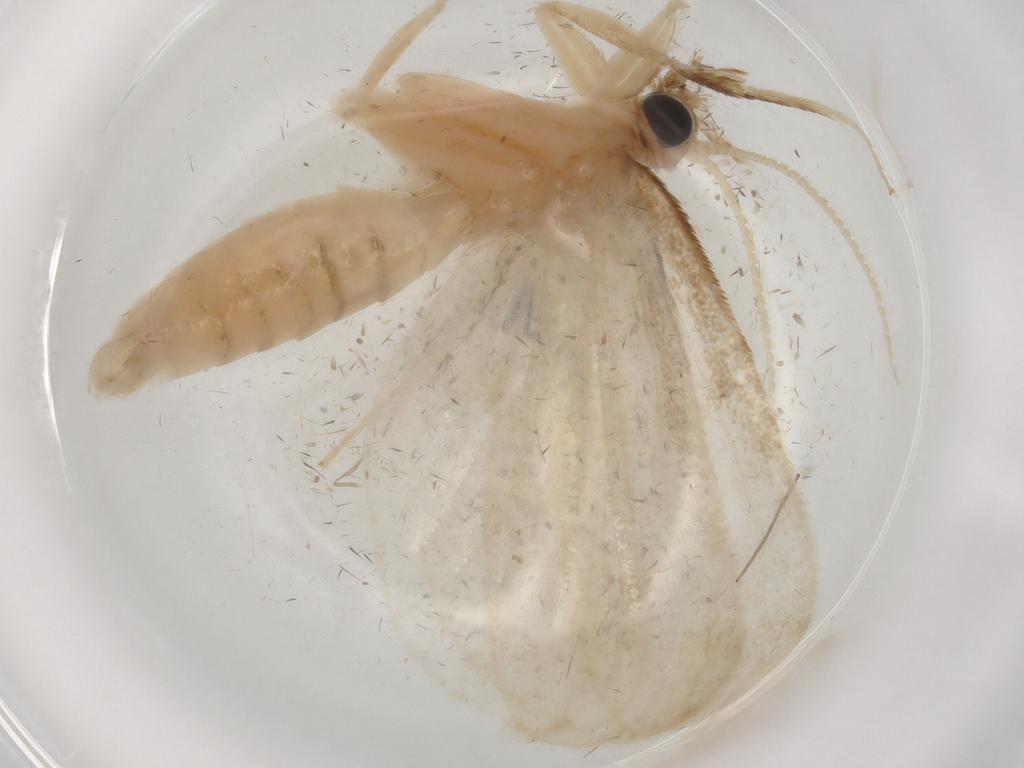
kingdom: Animalia
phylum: Arthropoda
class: Insecta
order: Lepidoptera
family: Crambidae
